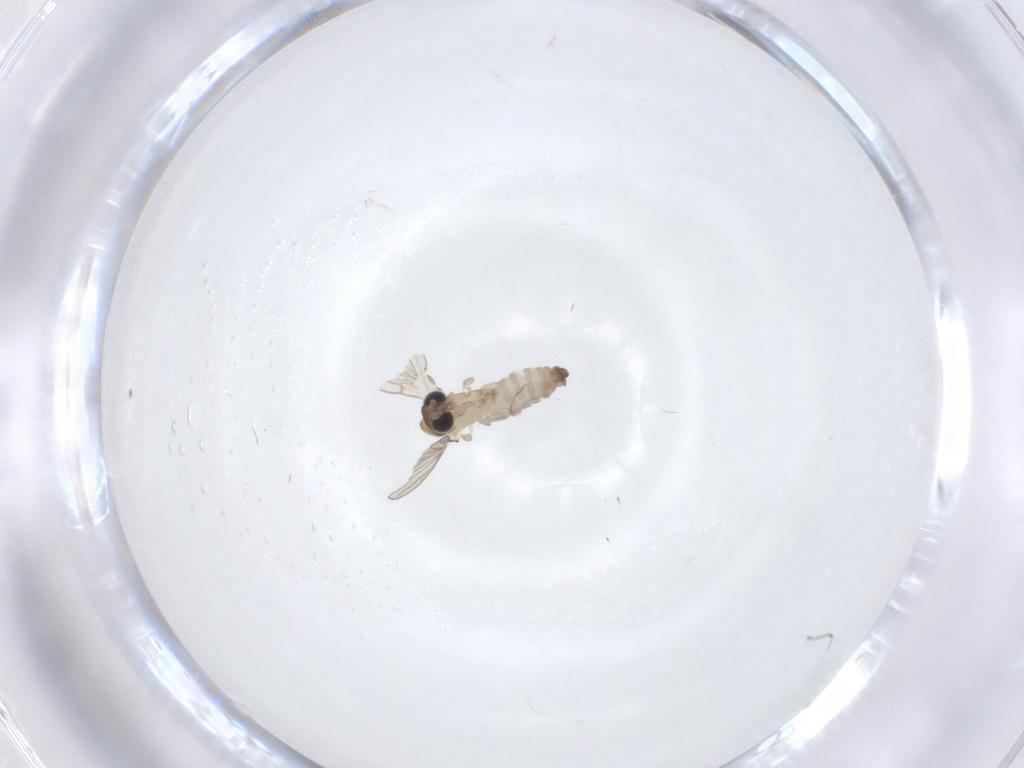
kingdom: Animalia
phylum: Arthropoda
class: Insecta
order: Diptera
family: Psychodidae
